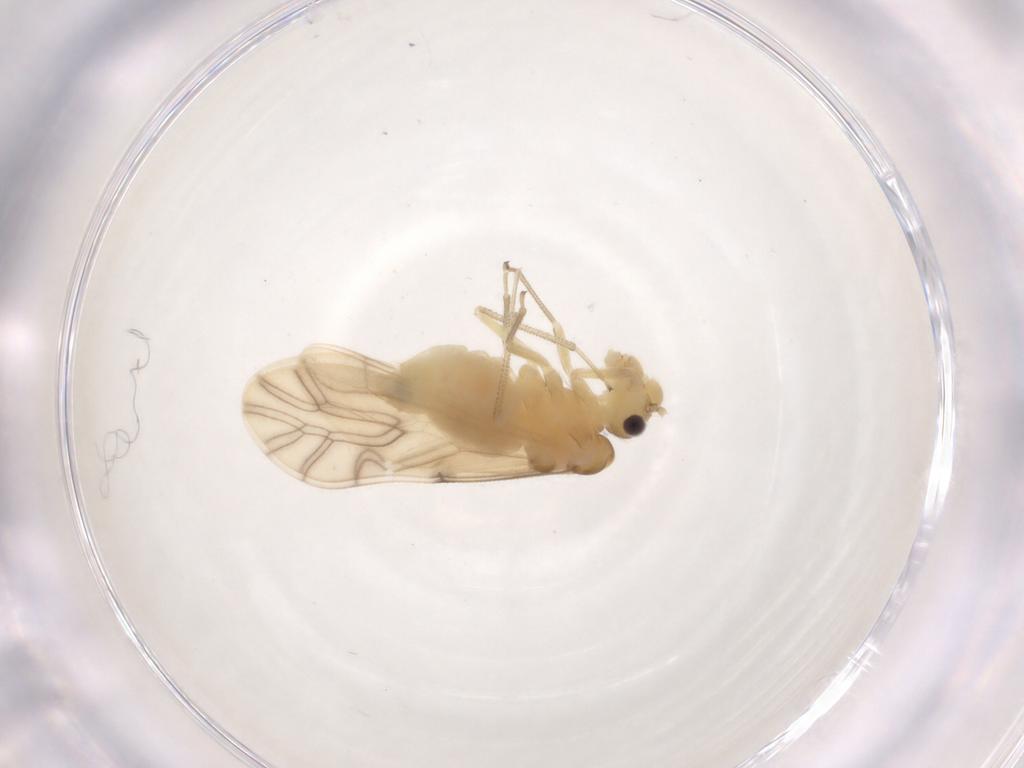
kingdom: Animalia
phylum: Arthropoda
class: Insecta
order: Psocodea
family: Caeciliusidae
